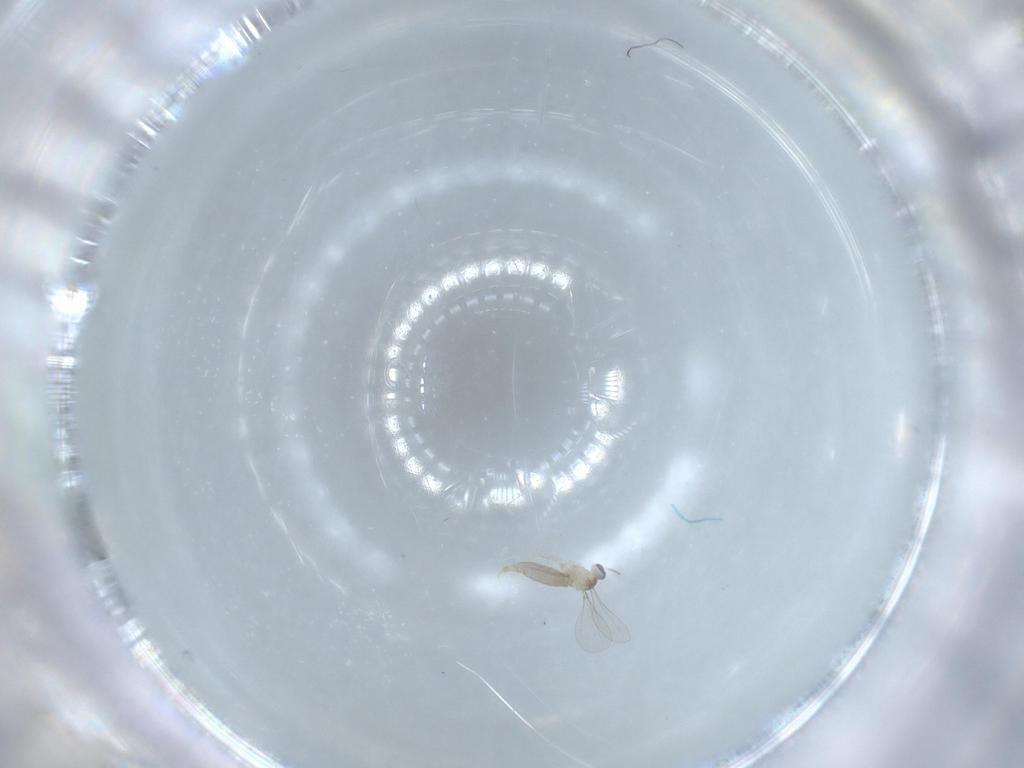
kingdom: Animalia
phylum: Arthropoda
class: Insecta
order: Diptera
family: Cecidomyiidae
